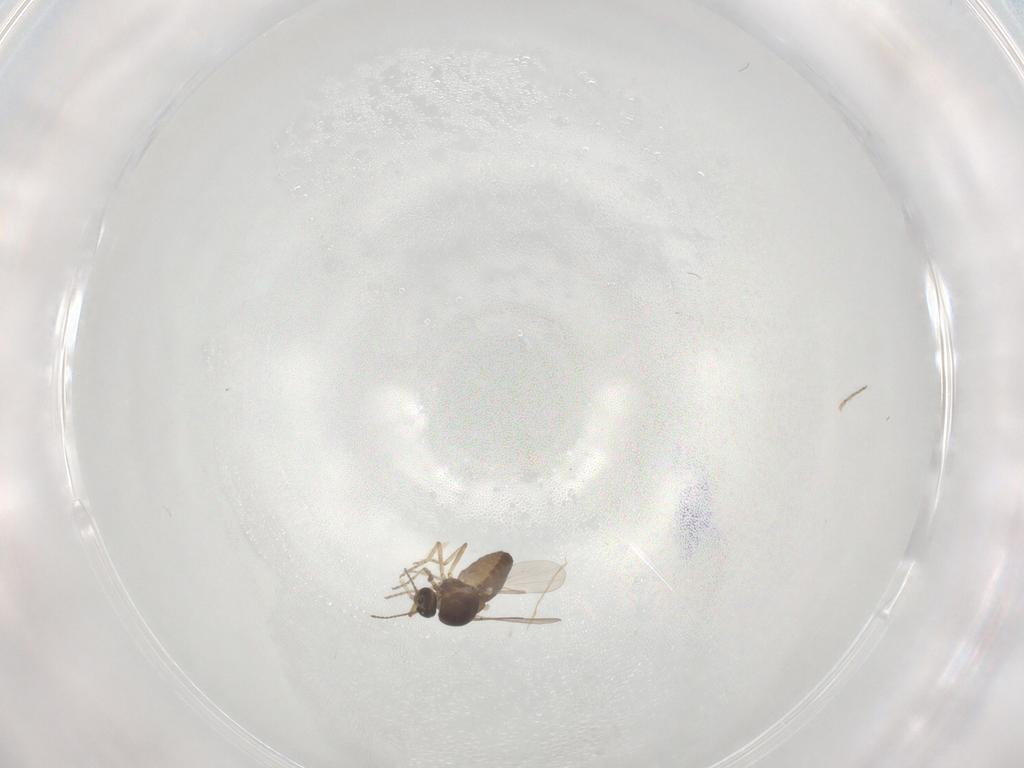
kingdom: Animalia
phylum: Arthropoda
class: Insecta
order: Diptera
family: Ceratopogonidae
